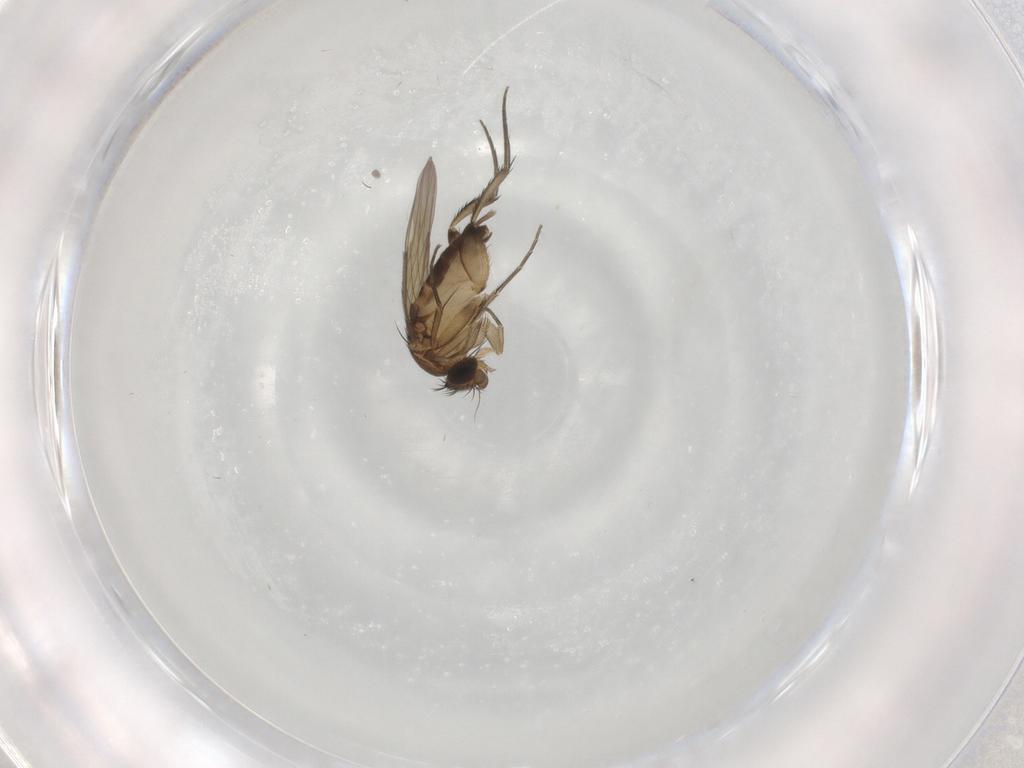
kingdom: Animalia
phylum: Arthropoda
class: Insecta
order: Diptera
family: Phoridae
